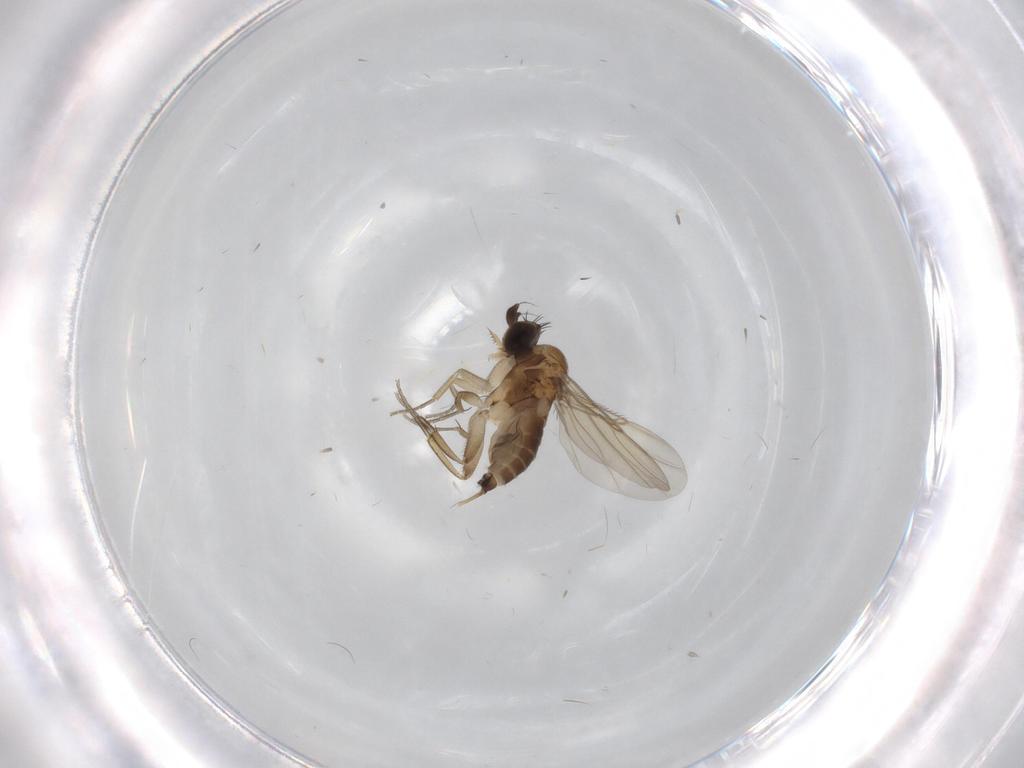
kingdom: Animalia
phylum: Arthropoda
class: Insecta
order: Diptera
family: Phoridae
